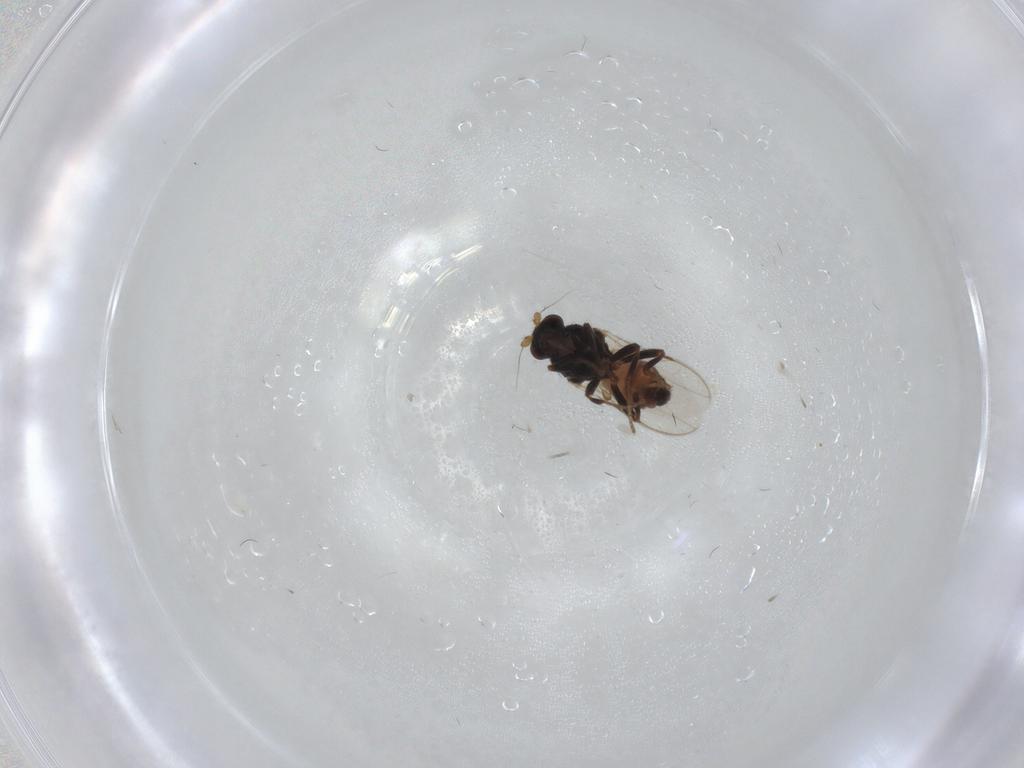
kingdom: Animalia
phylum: Arthropoda
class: Insecta
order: Diptera
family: Sphaeroceridae
